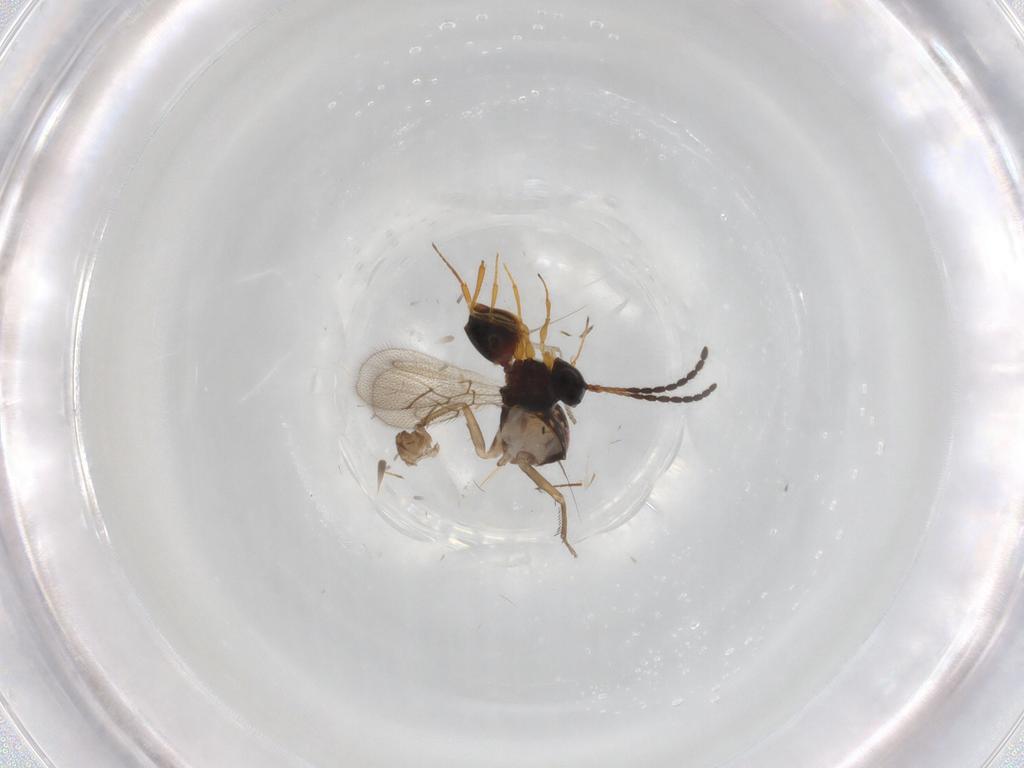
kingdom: Animalia
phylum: Arthropoda
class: Insecta
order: Hymenoptera
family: Figitidae
